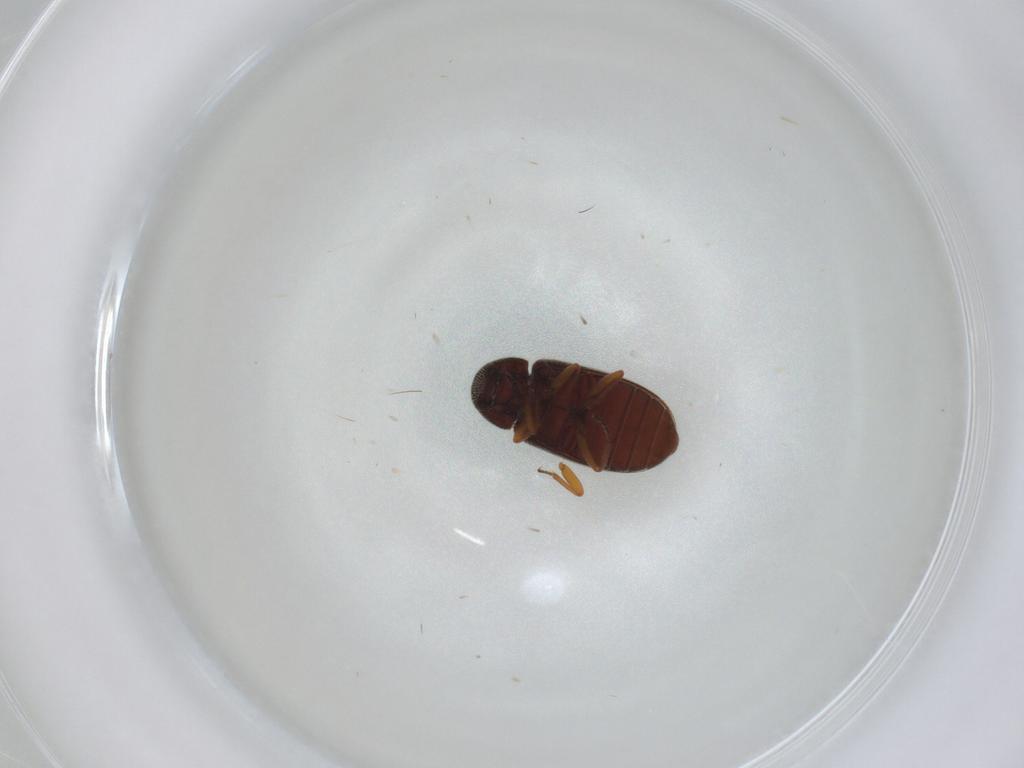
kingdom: Animalia
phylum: Arthropoda
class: Insecta
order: Coleoptera
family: Rhadalidae
